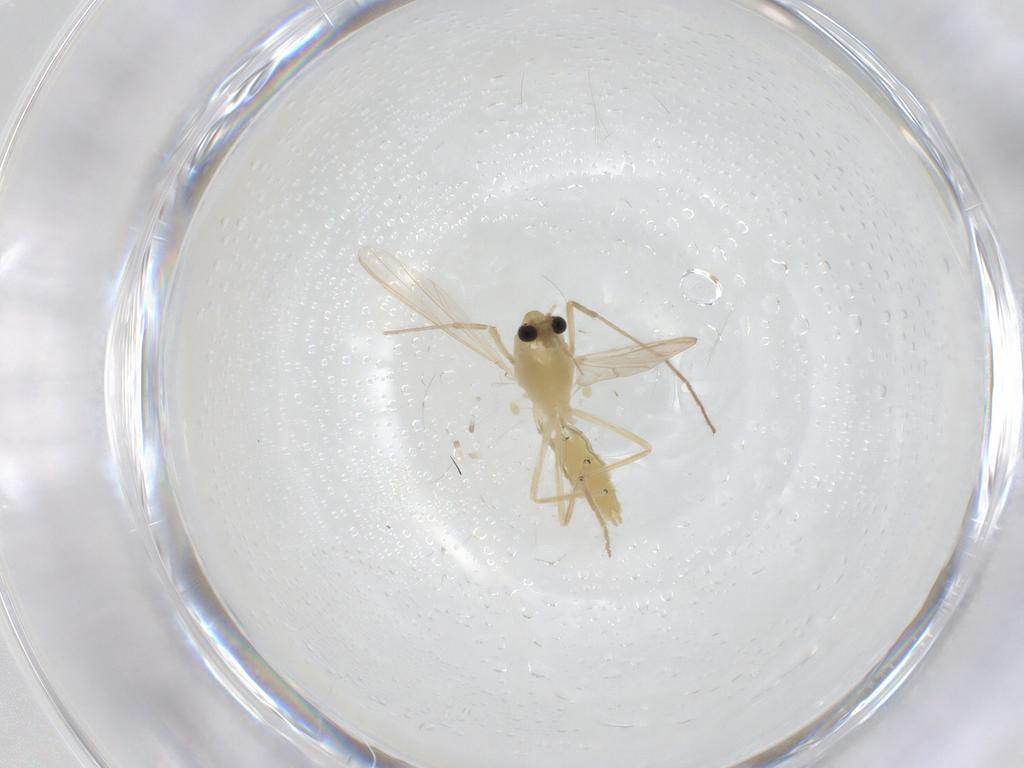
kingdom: Animalia
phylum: Arthropoda
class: Insecta
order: Diptera
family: Chironomidae
